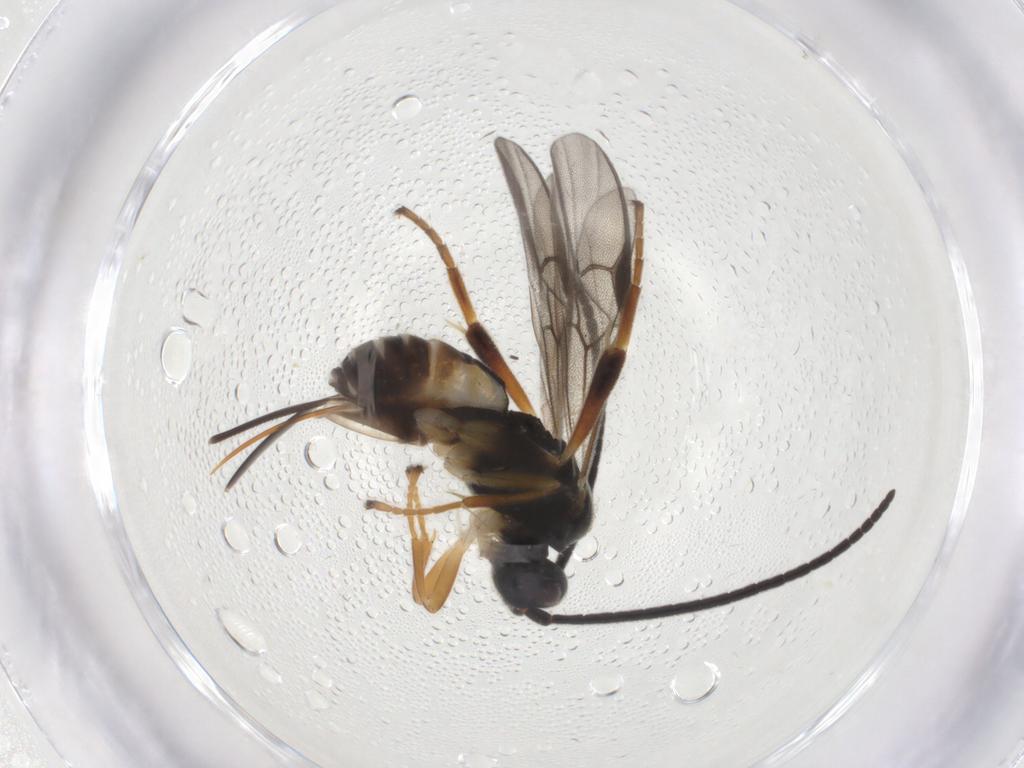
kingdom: Animalia
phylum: Arthropoda
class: Insecta
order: Hymenoptera
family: Braconidae
